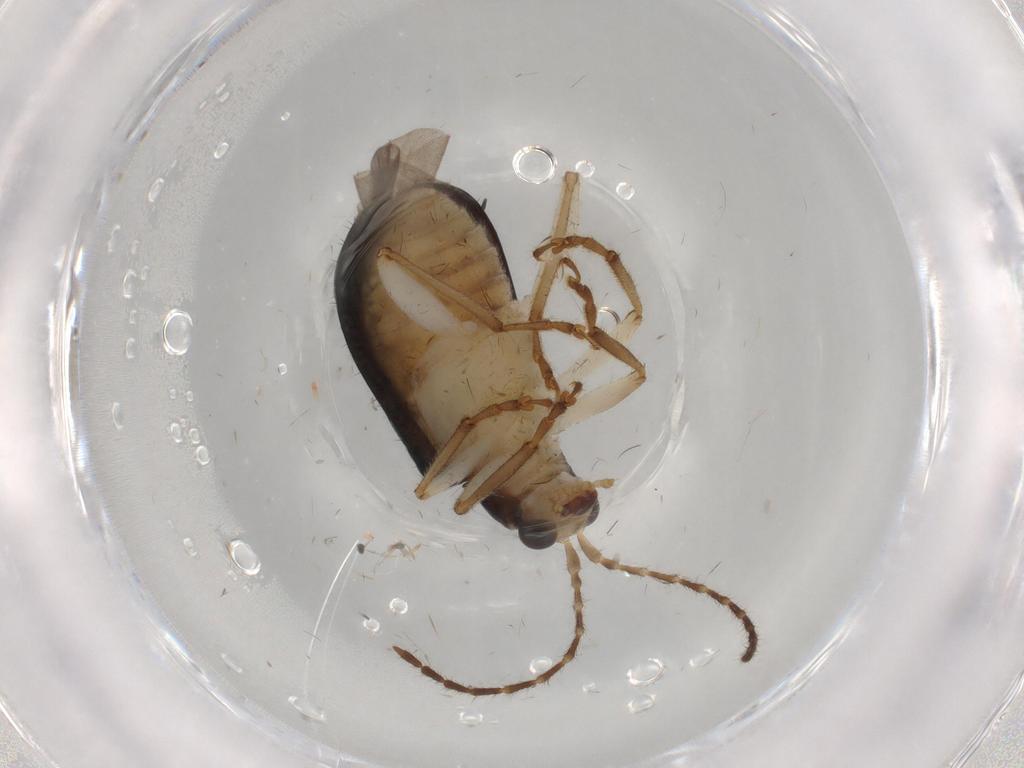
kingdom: Animalia
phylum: Arthropoda
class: Insecta
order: Coleoptera
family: Chrysomelidae
